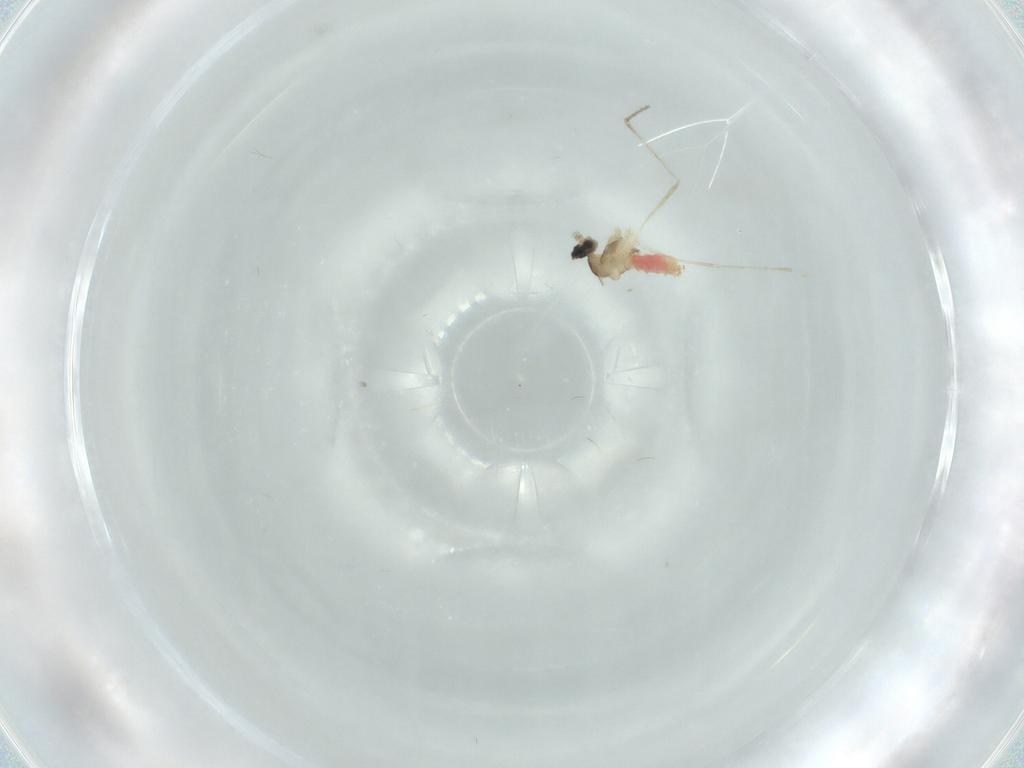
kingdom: Animalia
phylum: Arthropoda
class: Insecta
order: Diptera
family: Cecidomyiidae
